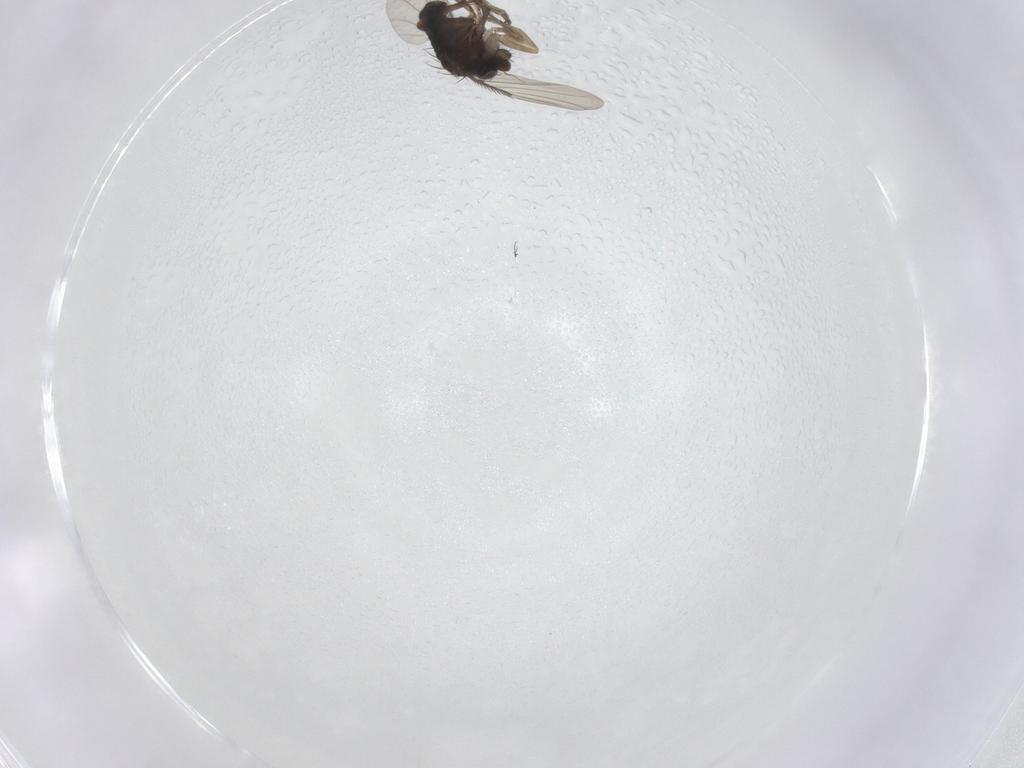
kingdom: Animalia
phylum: Arthropoda
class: Insecta
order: Diptera
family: Phoridae
